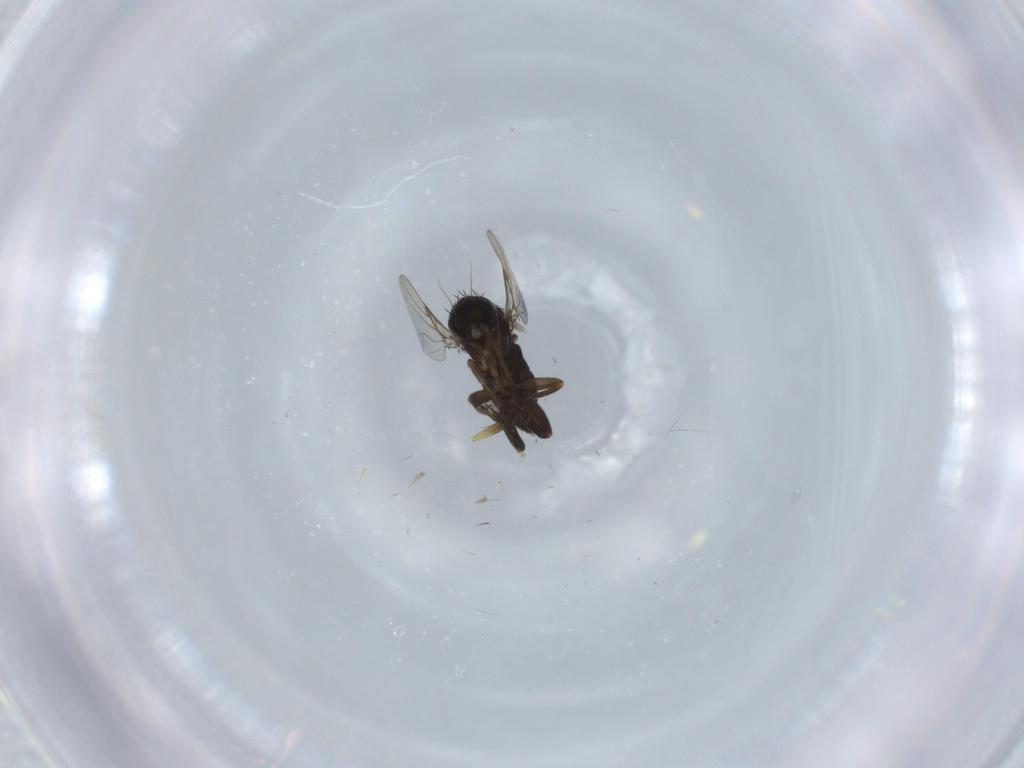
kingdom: Animalia
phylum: Arthropoda
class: Insecta
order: Diptera
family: Phoridae
